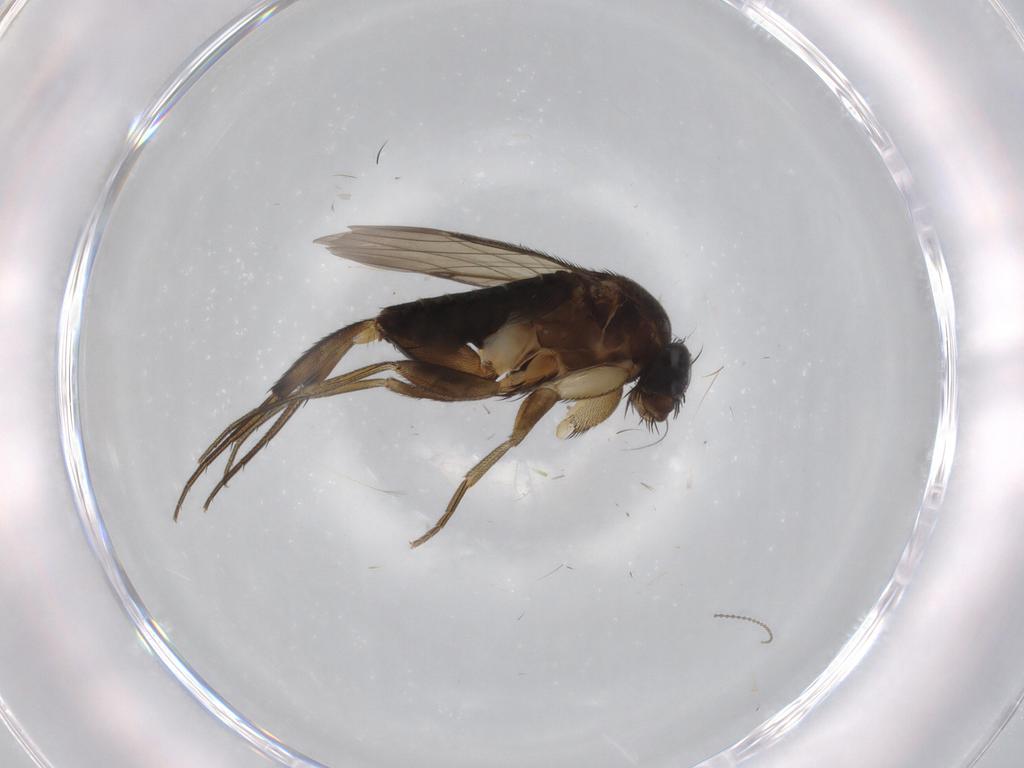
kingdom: Animalia
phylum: Arthropoda
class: Insecta
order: Diptera
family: Phoridae
